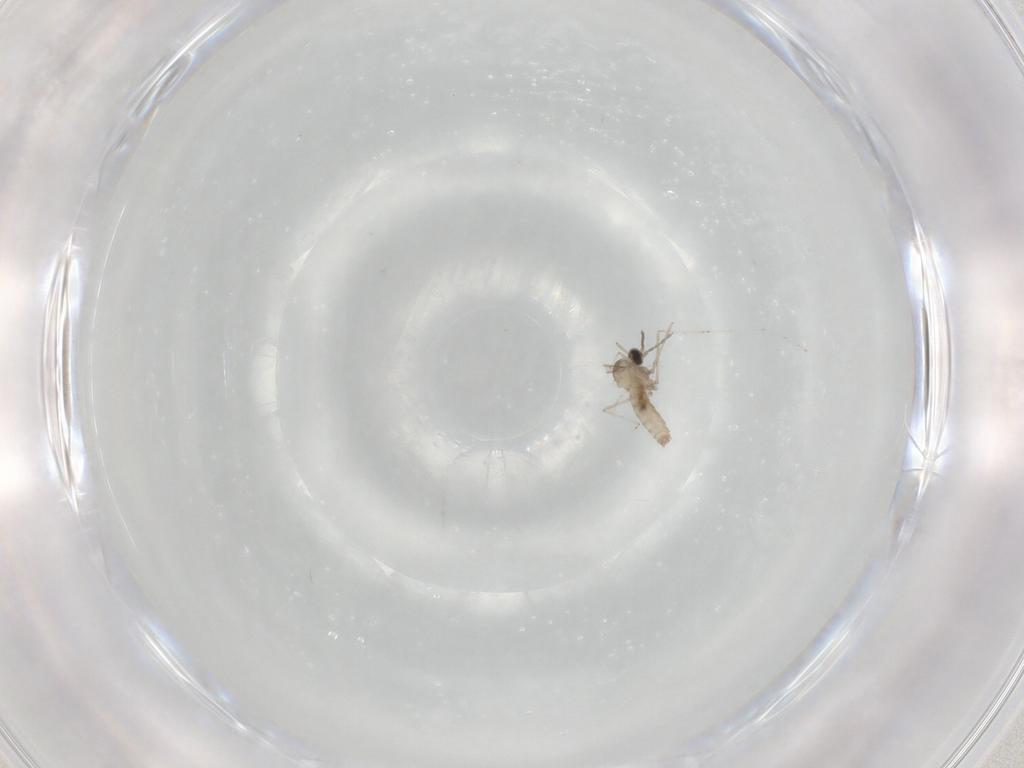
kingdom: Animalia
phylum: Arthropoda
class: Insecta
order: Diptera
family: Cecidomyiidae
